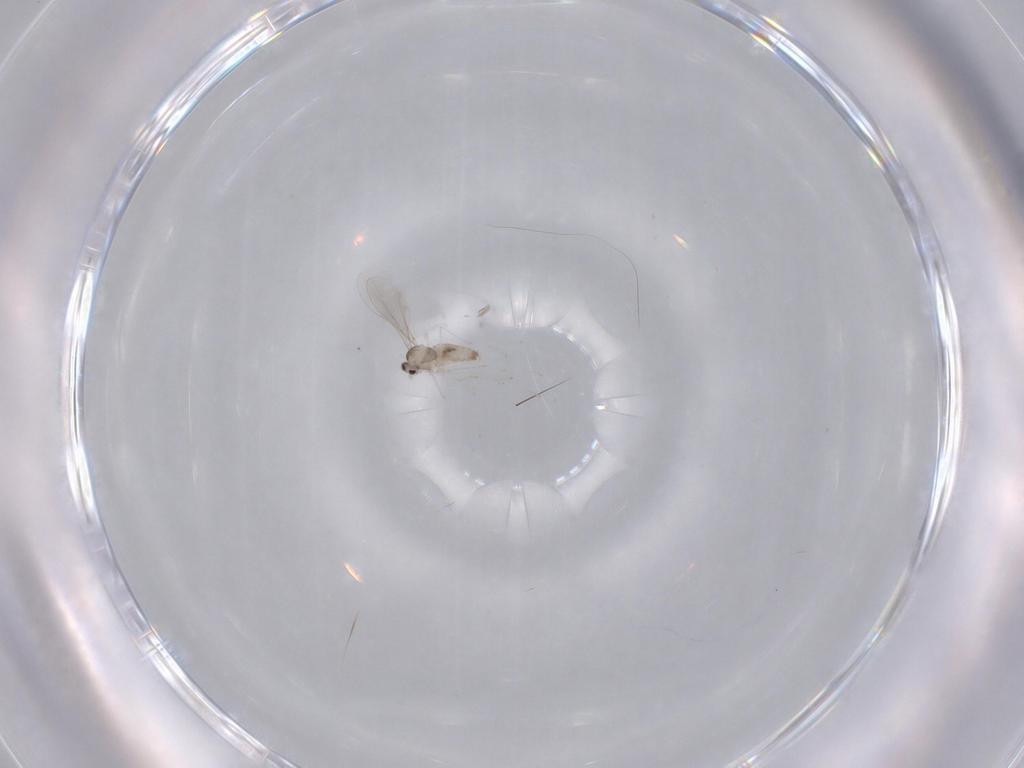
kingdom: Animalia
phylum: Arthropoda
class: Insecta
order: Diptera
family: Cecidomyiidae
